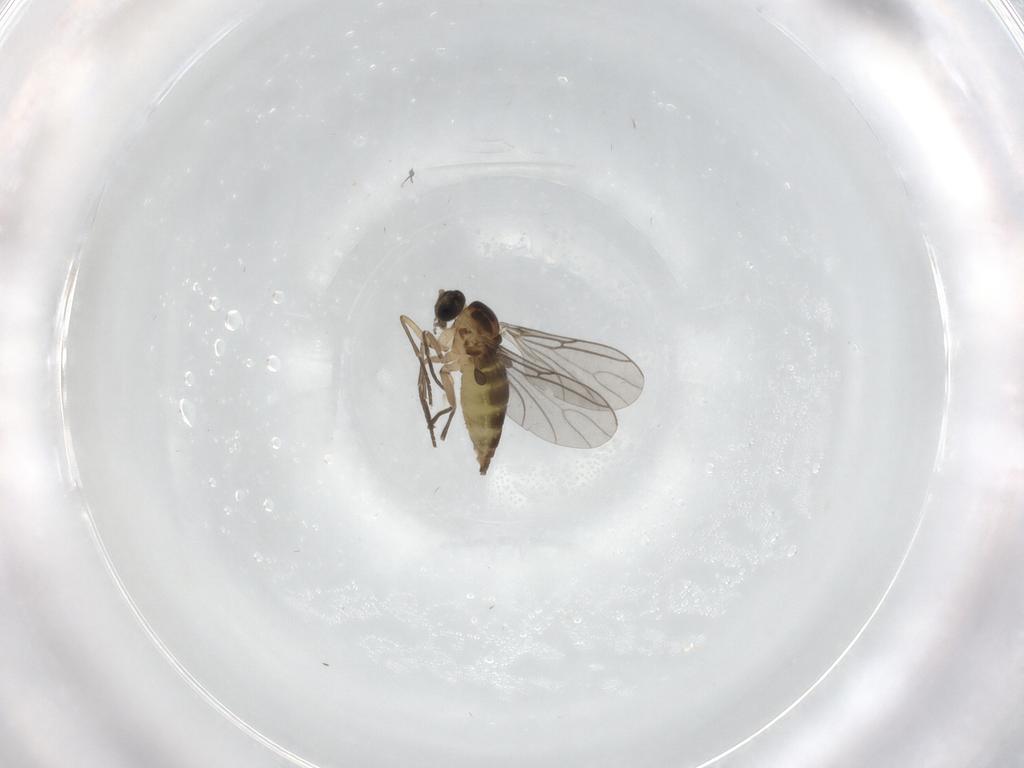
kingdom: Animalia
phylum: Arthropoda
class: Insecta
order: Diptera
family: Sciaridae
